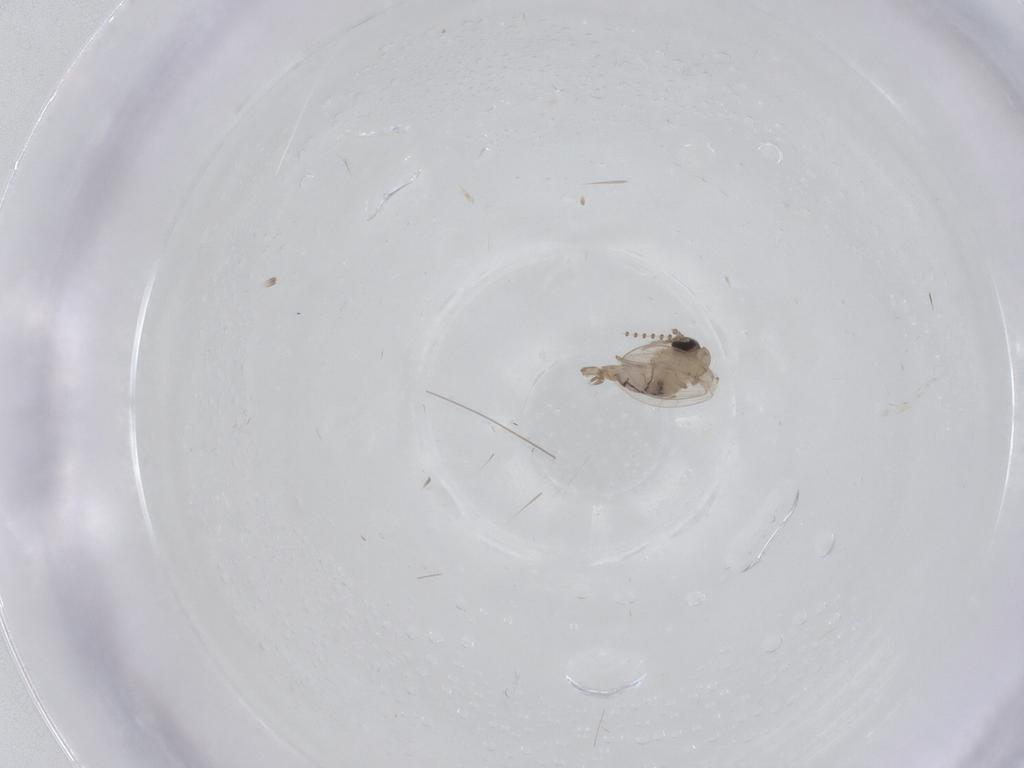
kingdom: Animalia
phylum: Arthropoda
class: Insecta
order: Diptera
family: Psychodidae
